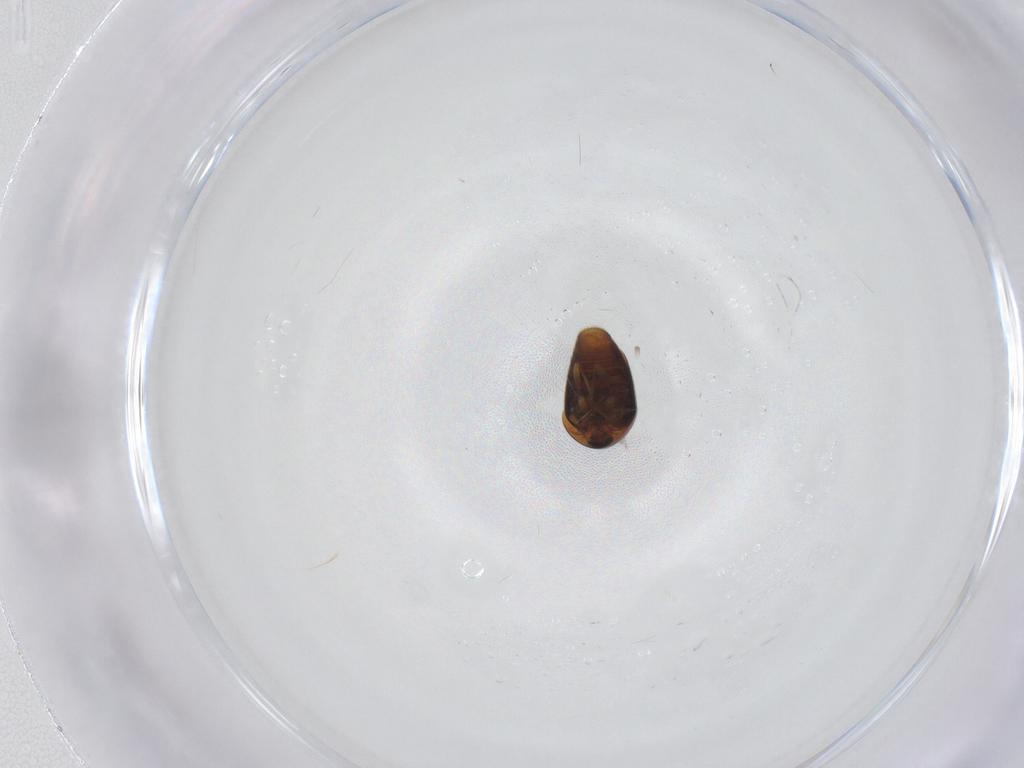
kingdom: Animalia
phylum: Arthropoda
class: Insecta
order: Coleoptera
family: Corylophidae
